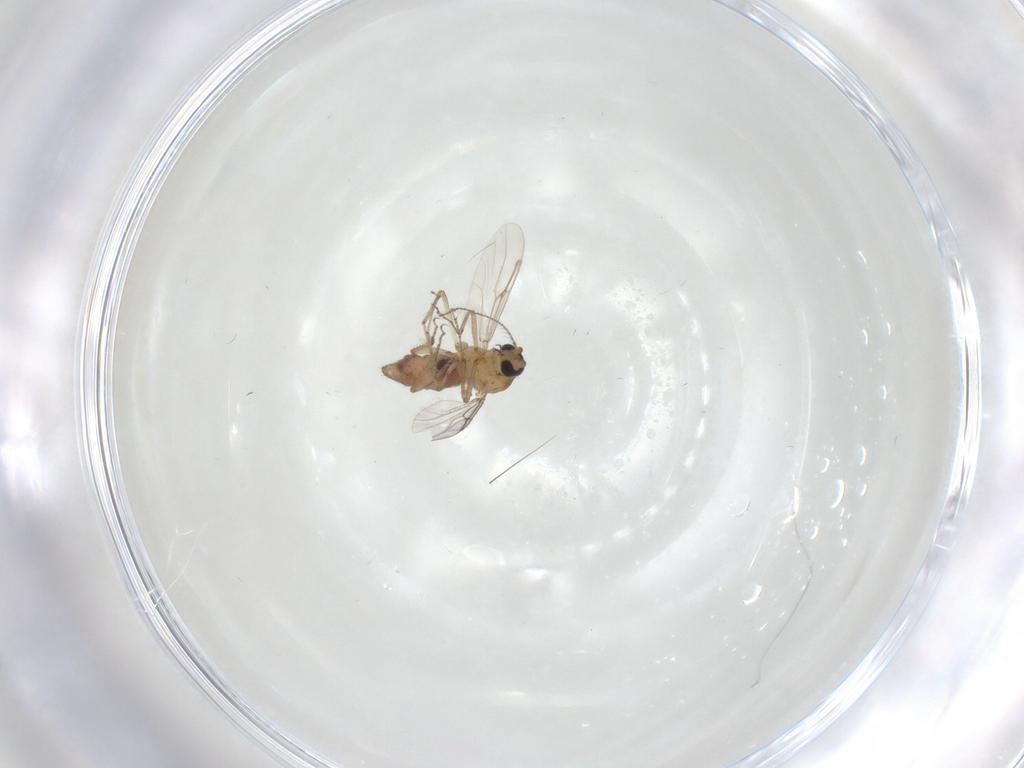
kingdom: Animalia
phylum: Arthropoda
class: Insecta
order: Diptera
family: Ceratopogonidae
